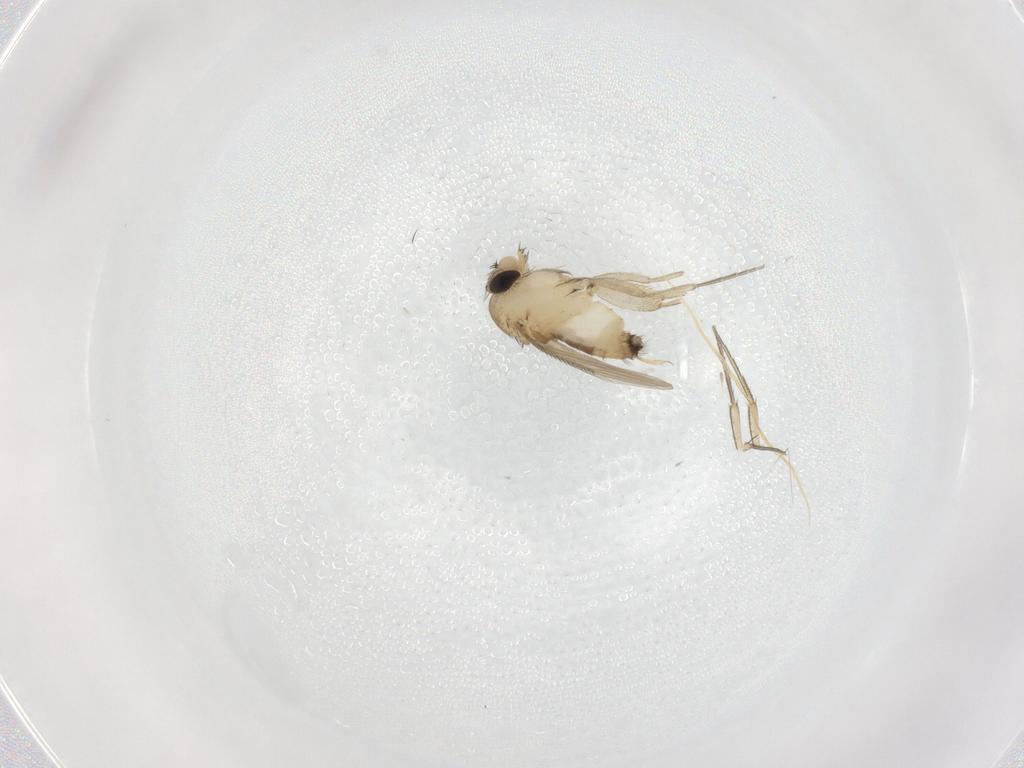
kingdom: Animalia
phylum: Arthropoda
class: Insecta
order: Diptera
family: Phoridae
